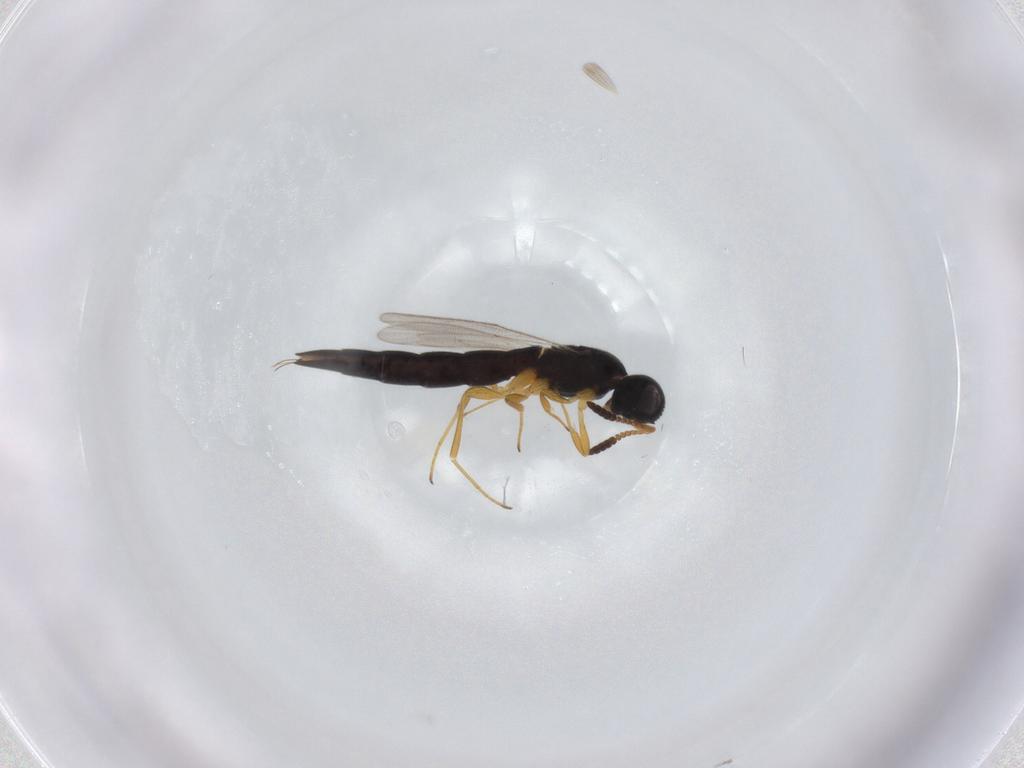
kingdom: Animalia
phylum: Arthropoda
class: Insecta
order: Hymenoptera
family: Scelionidae
